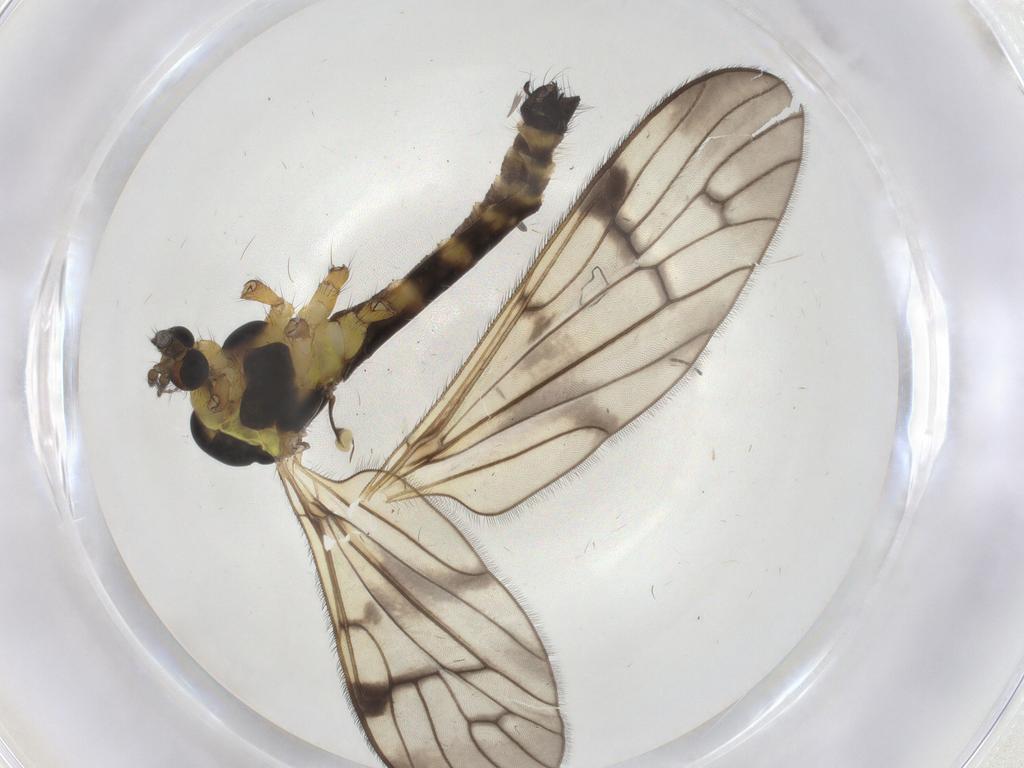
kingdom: Animalia
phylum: Arthropoda
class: Insecta
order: Diptera
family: Limoniidae
